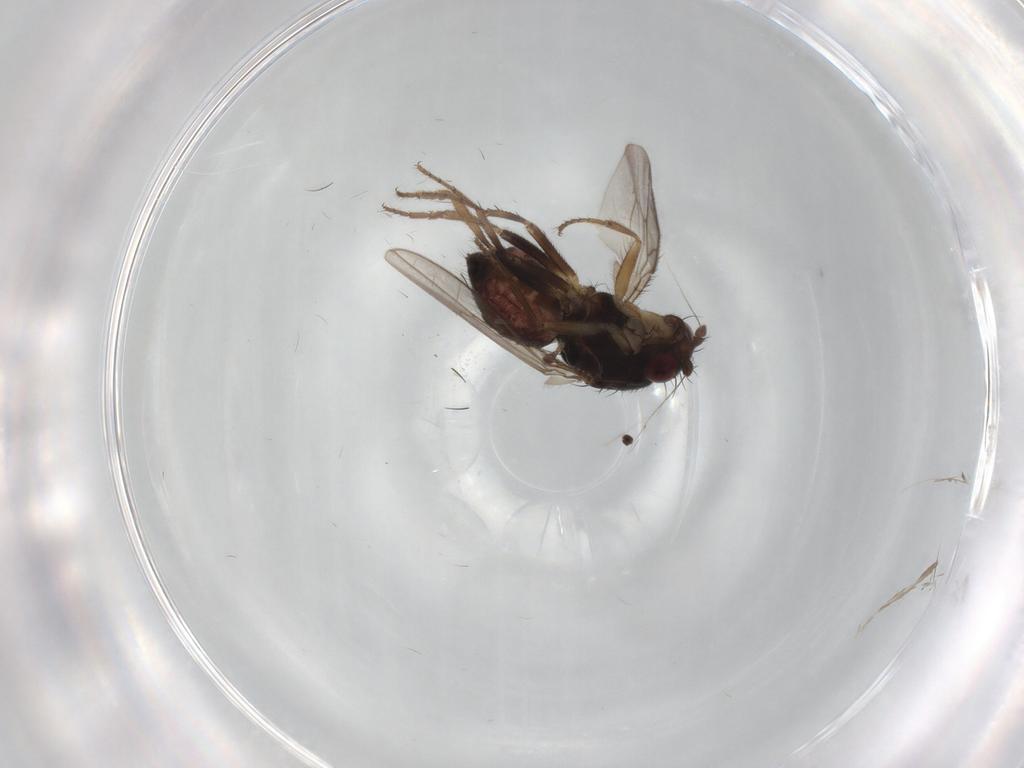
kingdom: Animalia
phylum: Arthropoda
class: Insecta
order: Diptera
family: Sphaeroceridae
